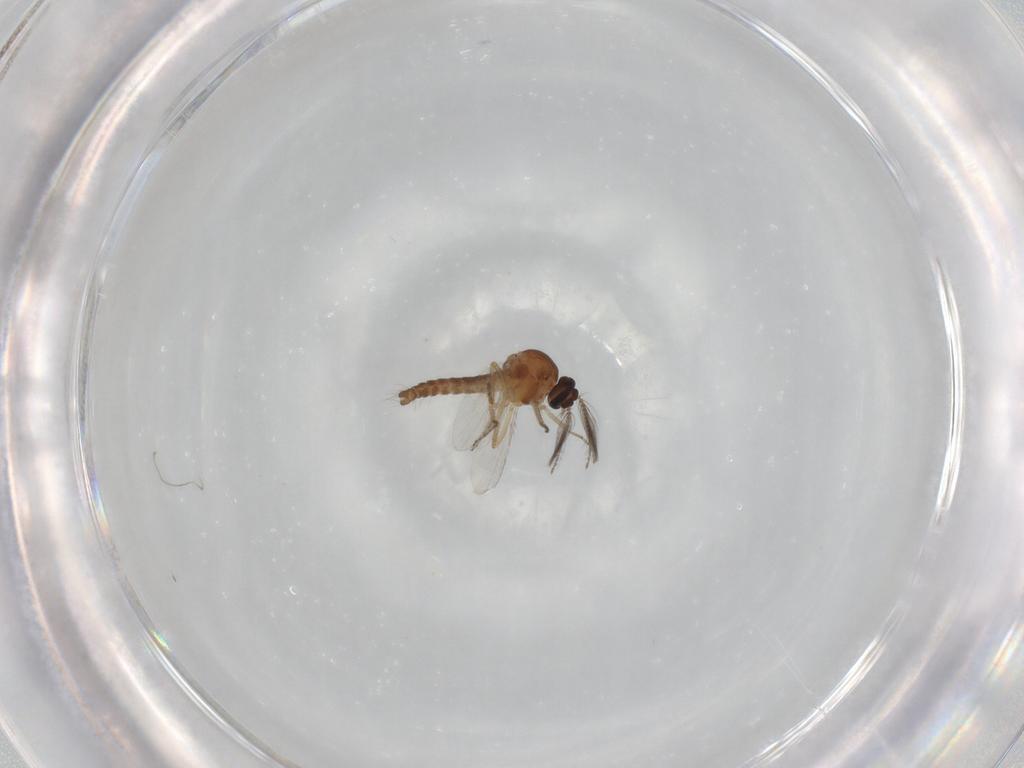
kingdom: Animalia
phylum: Arthropoda
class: Insecta
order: Diptera
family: Ceratopogonidae
